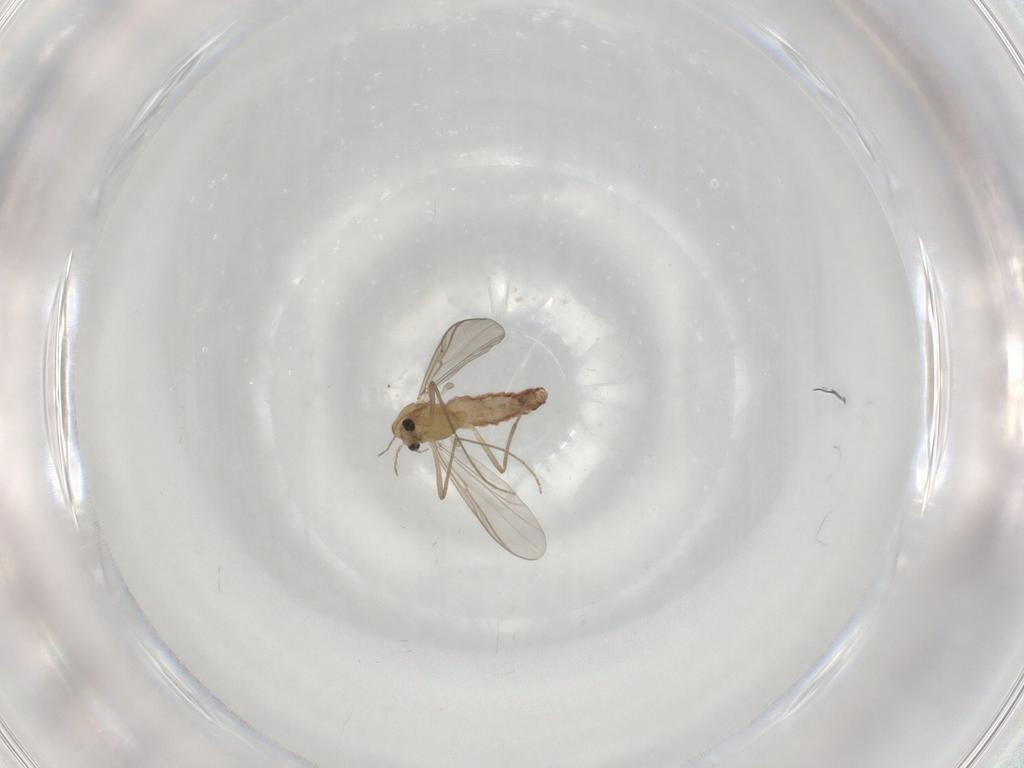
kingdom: Animalia
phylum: Arthropoda
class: Insecta
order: Diptera
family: Chironomidae
